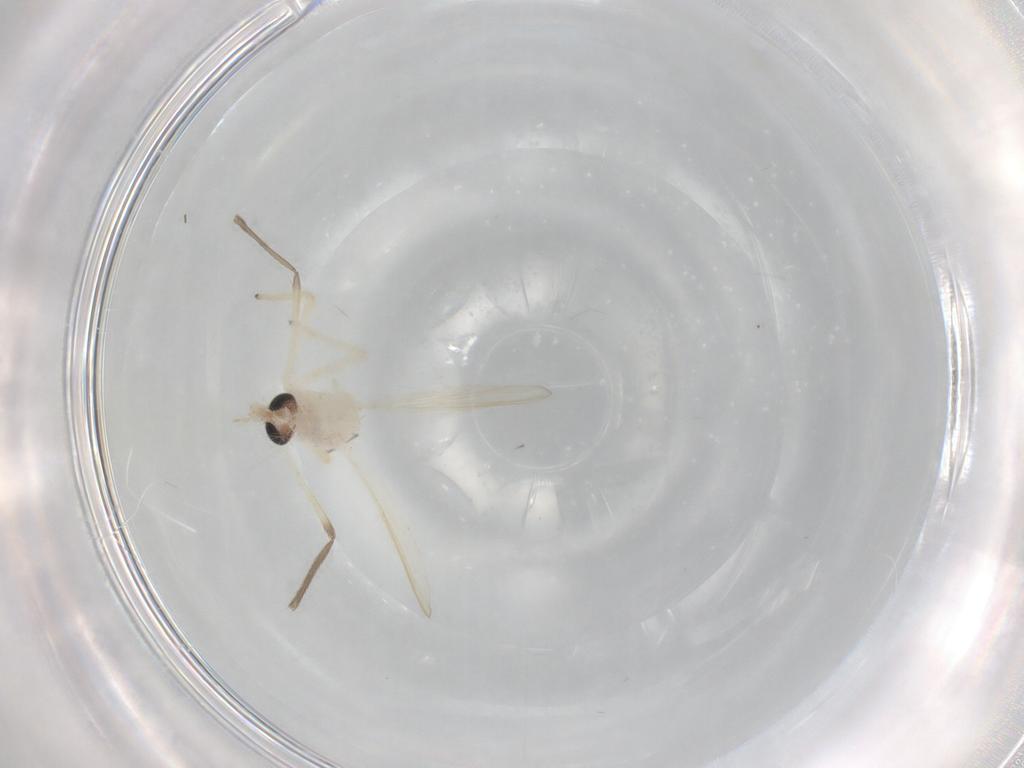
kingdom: Animalia
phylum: Arthropoda
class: Insecta
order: Diptera
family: Cecidomyiidae
